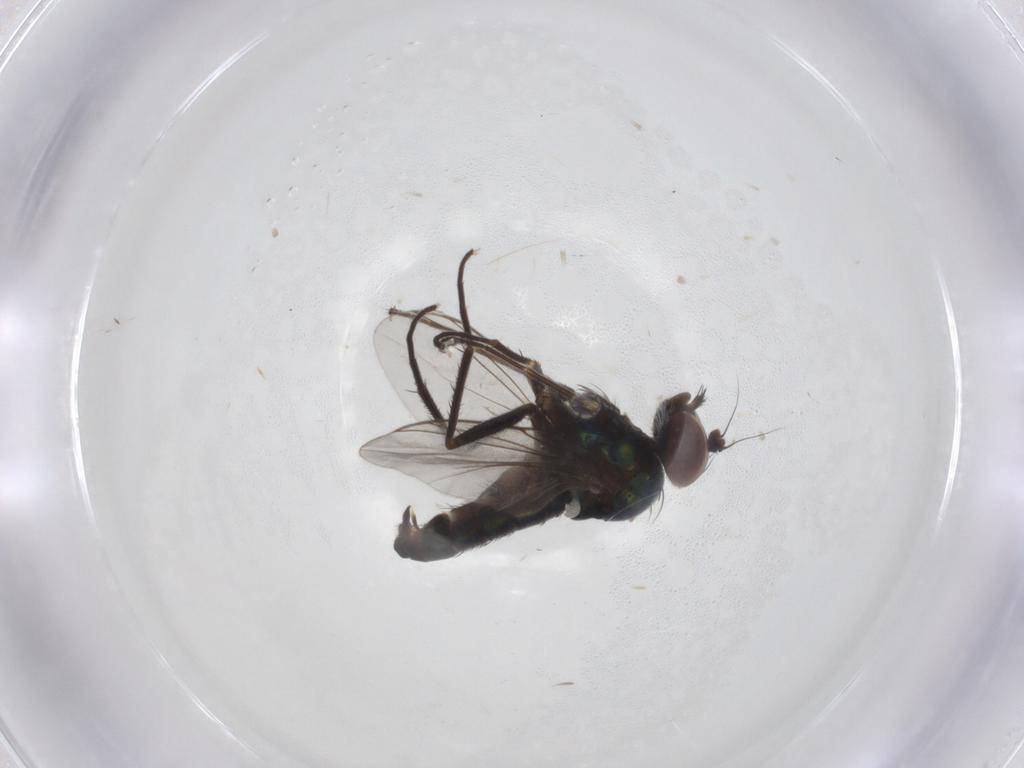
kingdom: Animalia
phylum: Arthropoda
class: Insecta
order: Diptera
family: Dolichopodidae
